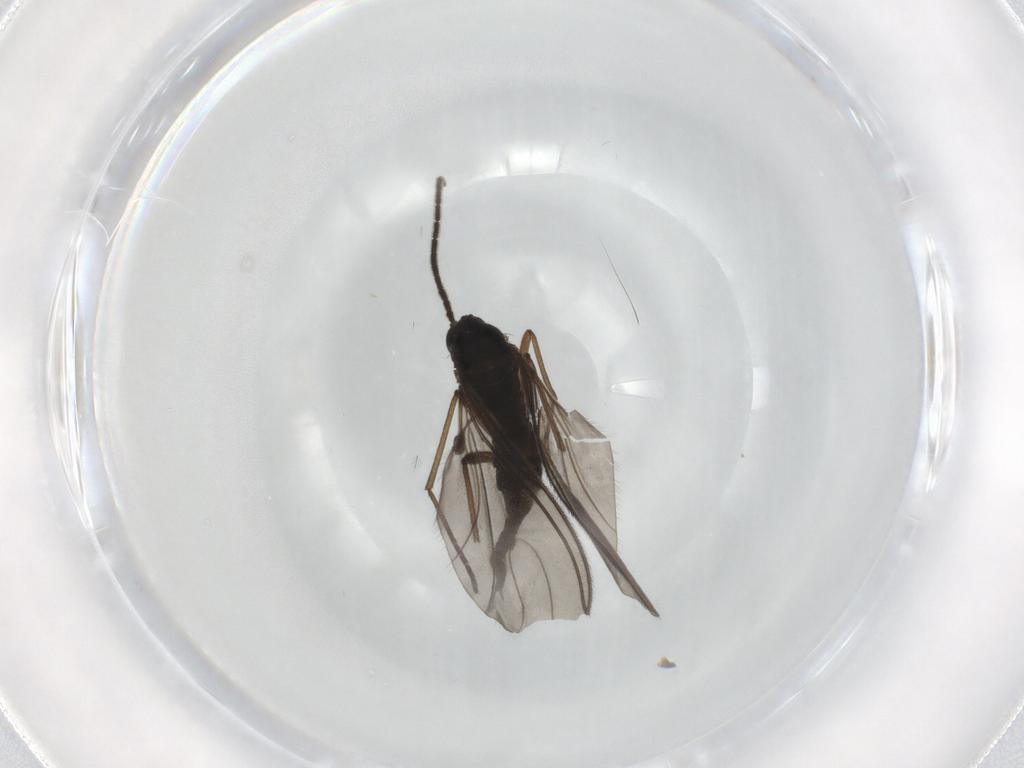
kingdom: Animalia
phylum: Arthropoda
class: Insecta
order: Diptera
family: Sciaridae
